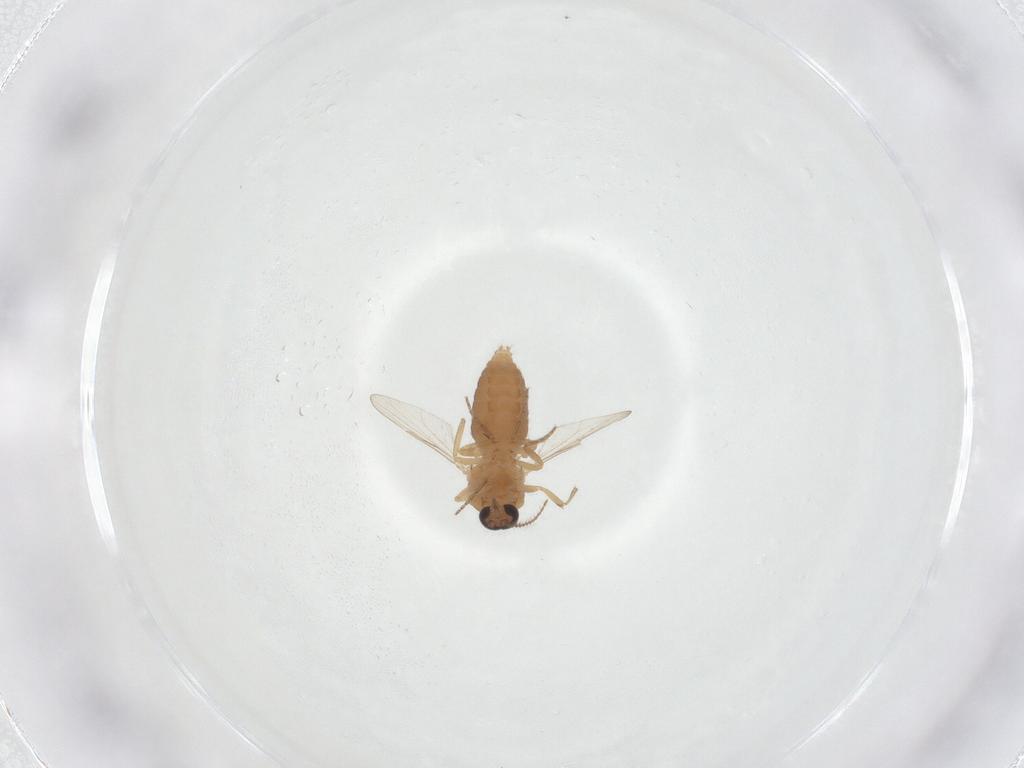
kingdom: Animalia
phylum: Arthropoda
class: Insecta
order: Diptera
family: Ceratopogonidae
